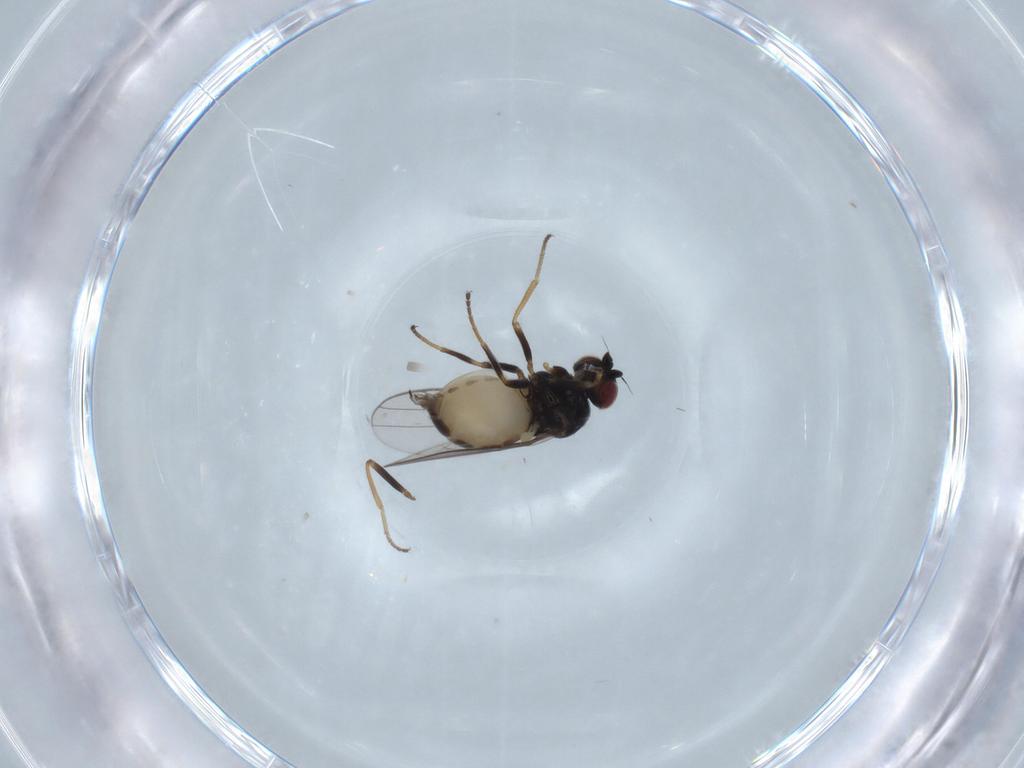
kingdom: Animalia
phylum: Arthropoda
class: Insecta
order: Diptera
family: Chloropidae
